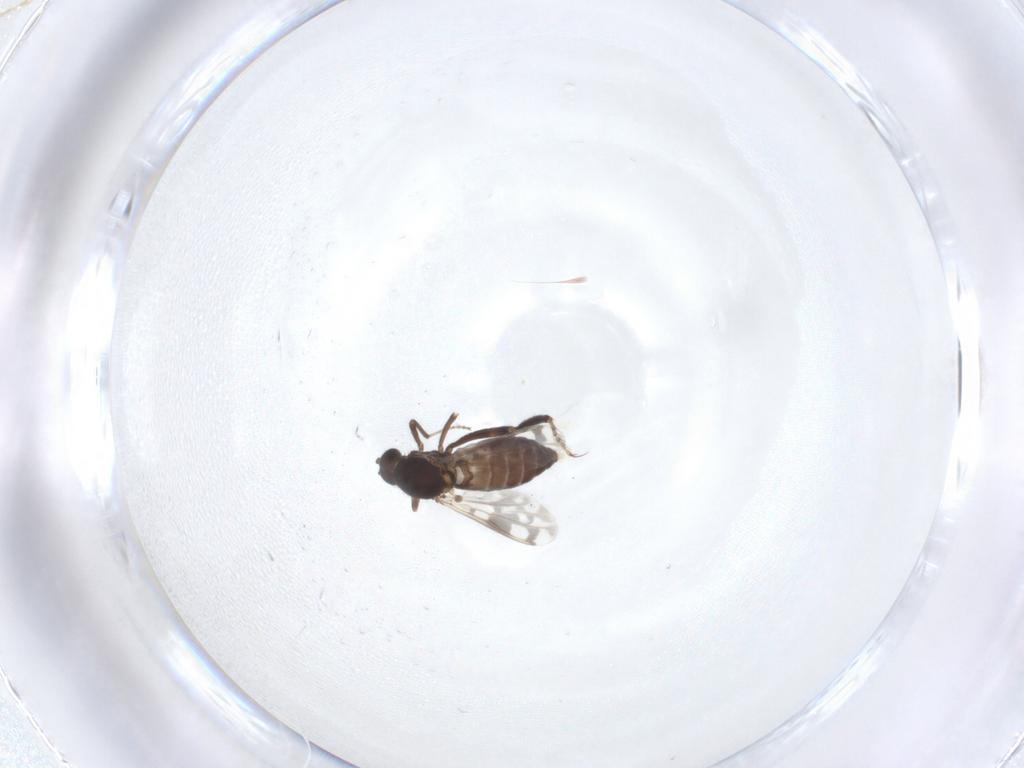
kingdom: Animalia
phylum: Arthropoda
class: Insecta
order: Diptera
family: Ceratopogonidae
